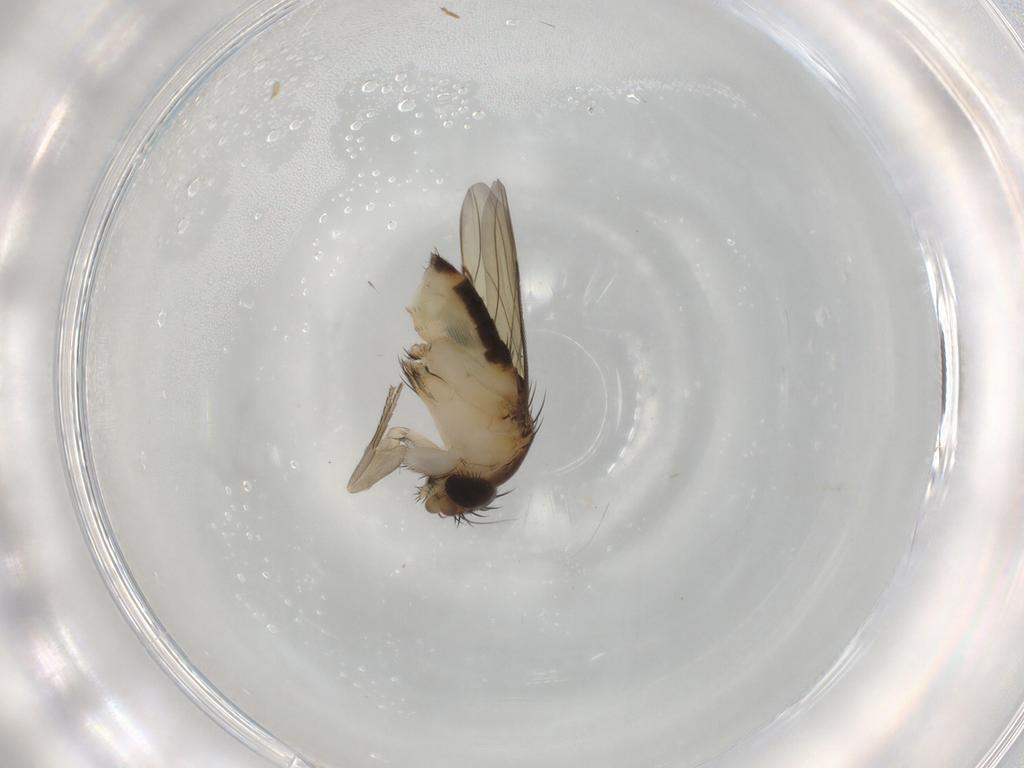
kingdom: Animalia
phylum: Arthropoda
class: Insecta
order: Diptera
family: Phoridae
